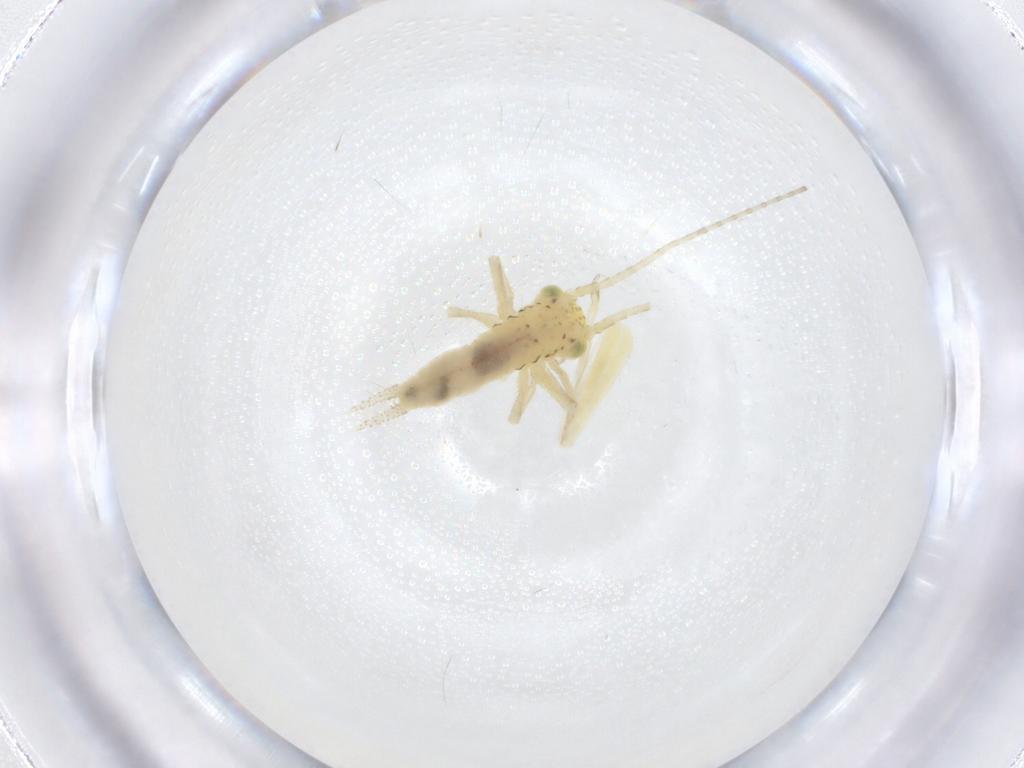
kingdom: Animalia
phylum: Arthropoda
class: Insecta
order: Orthoptera
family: Trigonidiidae
